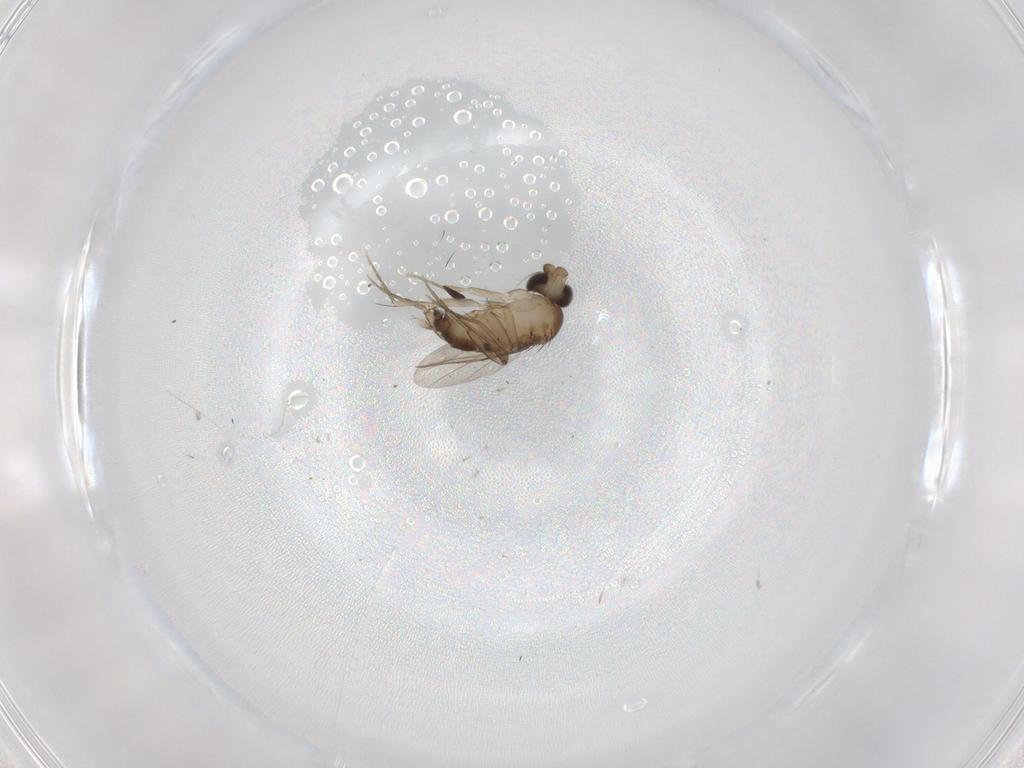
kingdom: Animalia
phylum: Arthropoda
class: Insecta
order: Diptera
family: Phoridae
